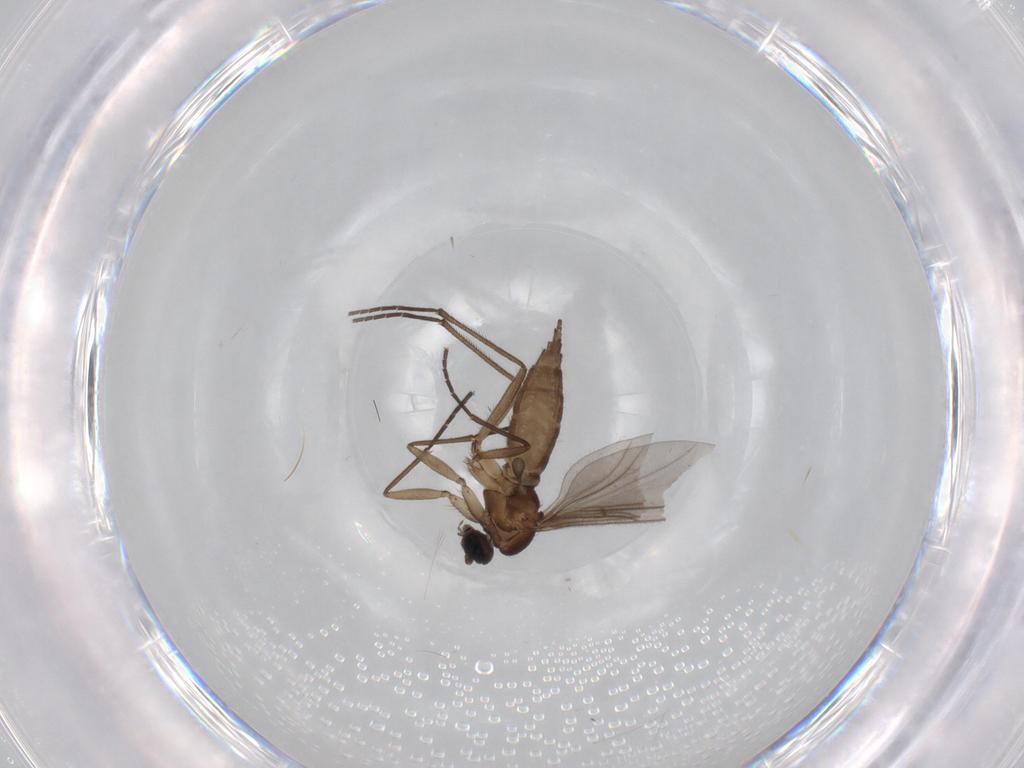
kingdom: Animalia
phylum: Arthropoda
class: Insecta
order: Diptera
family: Sciaridae
